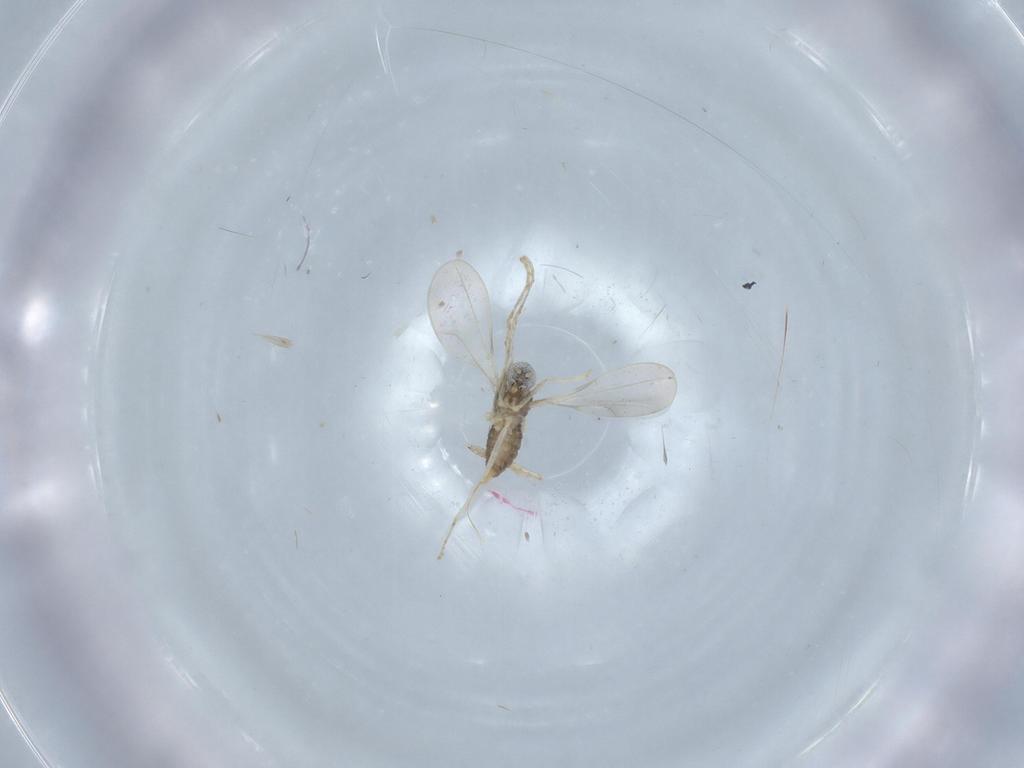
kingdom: Animalia
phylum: Arthropoda
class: Insecta
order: Diptera
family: Cecidomyiidae
